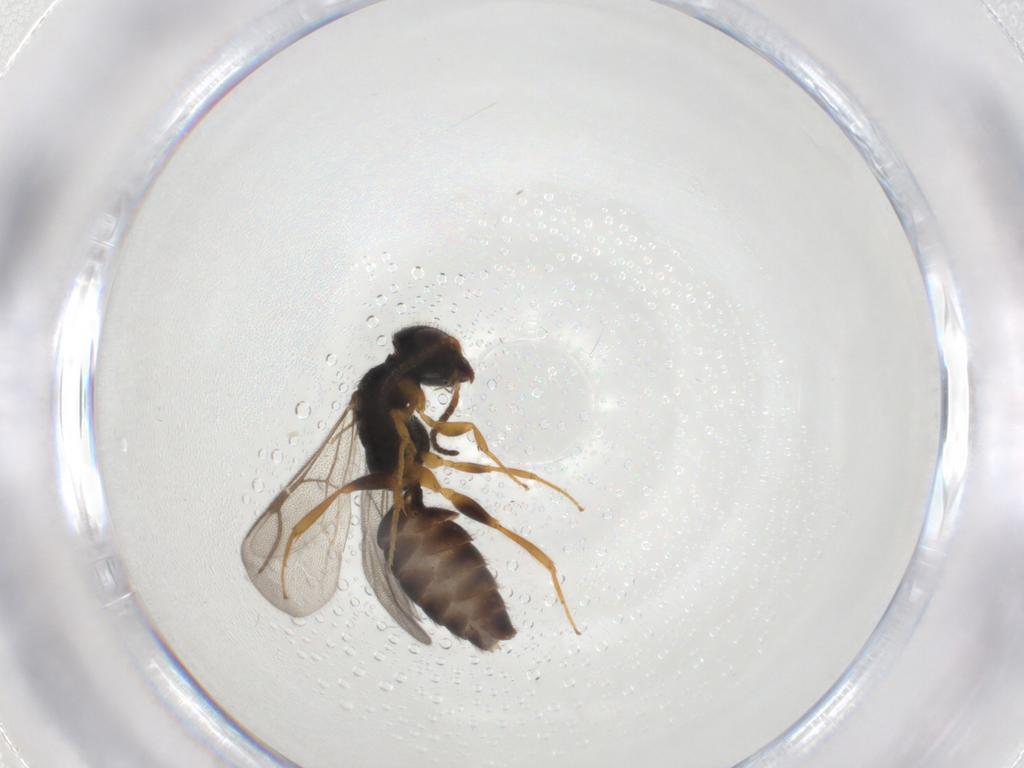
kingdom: Animalia
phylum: Arthropoda
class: Insecta
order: Hymenoptera
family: Bethylidae
